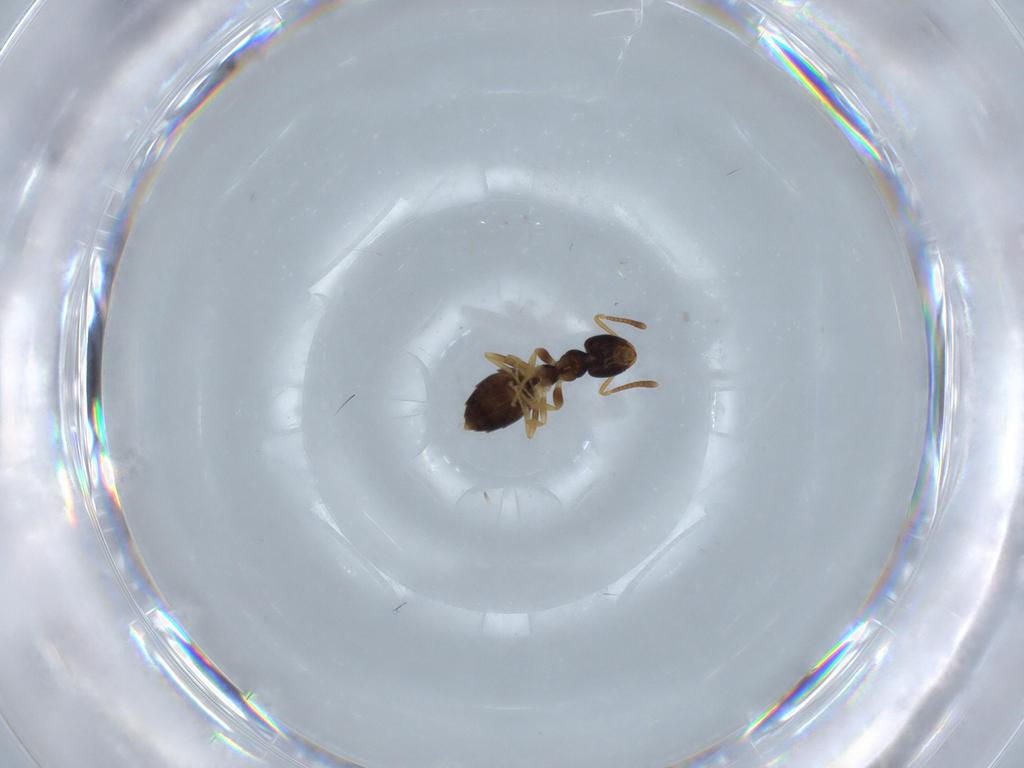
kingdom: Animalia
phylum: Arthropoda
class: Insecta
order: Hymenoptera
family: Formicidae
